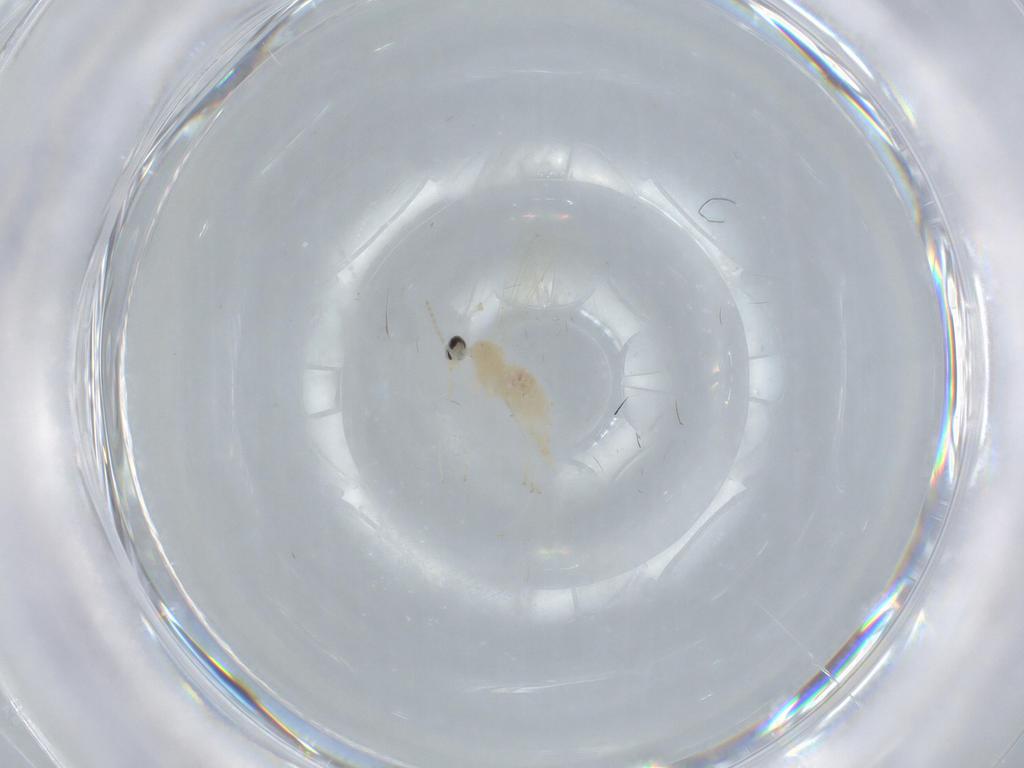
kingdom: Animalia
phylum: Arthropoda
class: Insecta
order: Diptera
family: Cecidomyiidae
